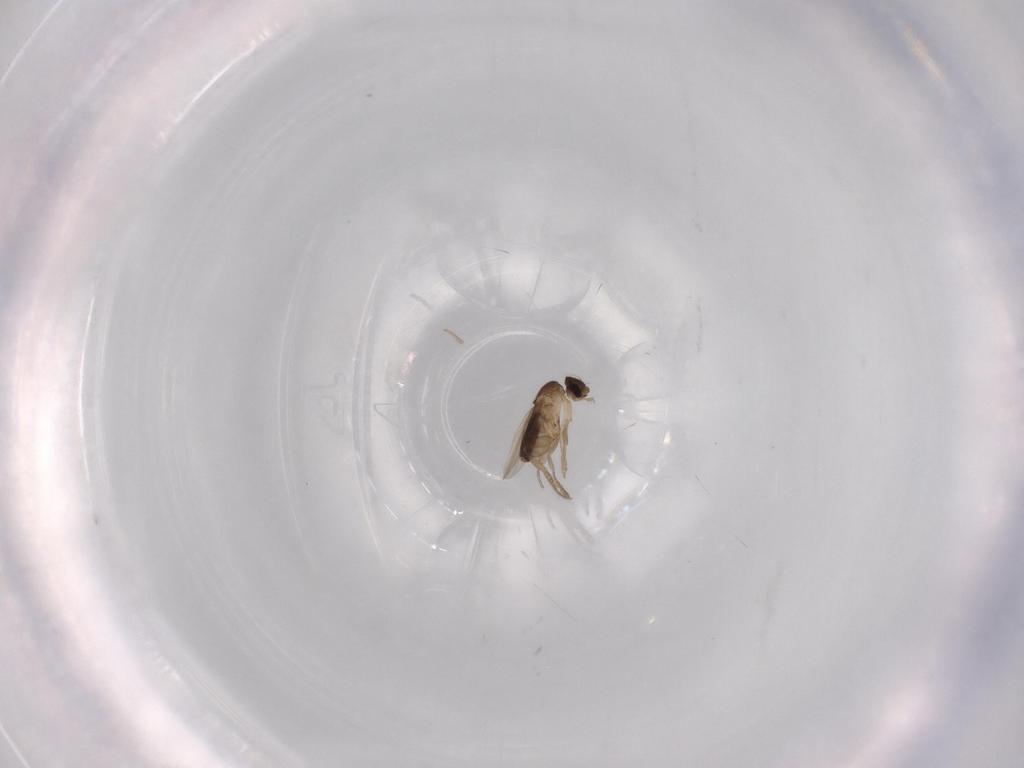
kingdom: Animalia
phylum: Arthropoda
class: Insecta
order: Diptera
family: Phoridae
